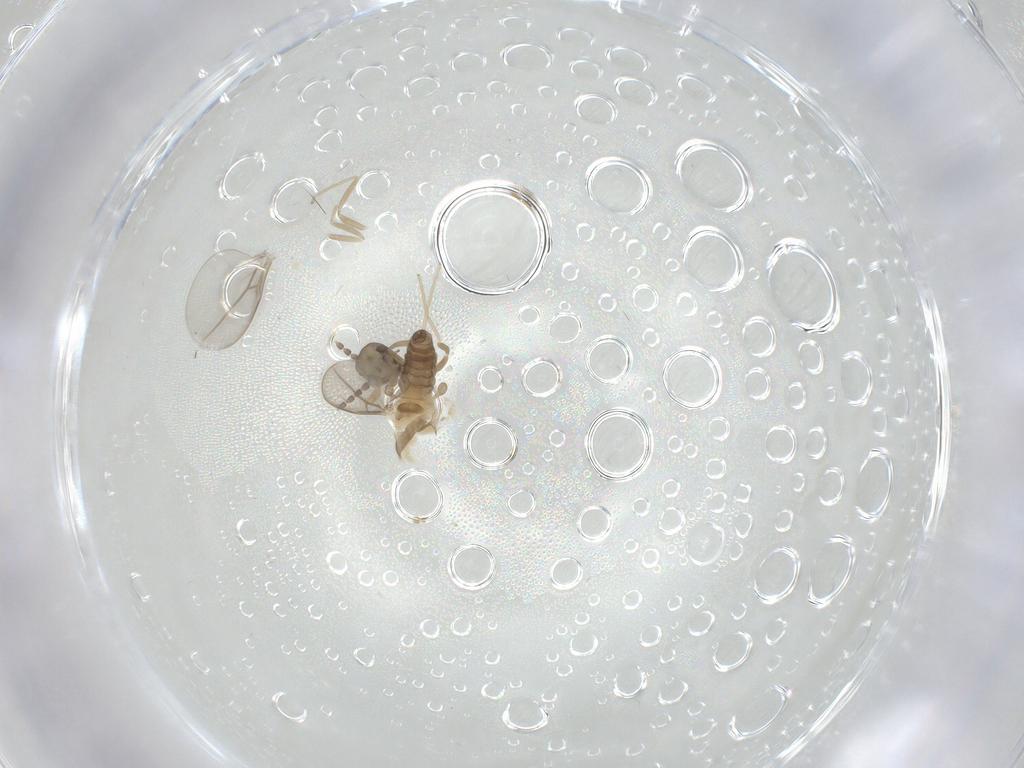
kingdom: Animalia
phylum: Arthropoda
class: Insecta
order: Diptera
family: Cecidomyiidae
